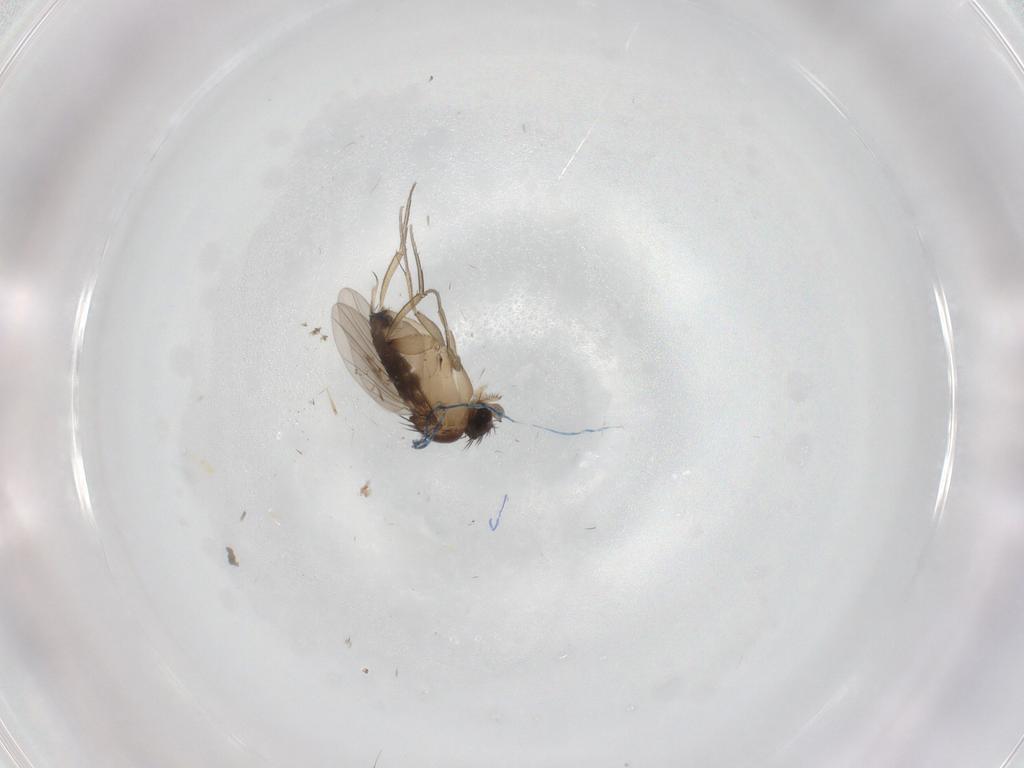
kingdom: Animalia
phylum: Arthropoda
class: Insecta
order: Diptera
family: Phoridae
